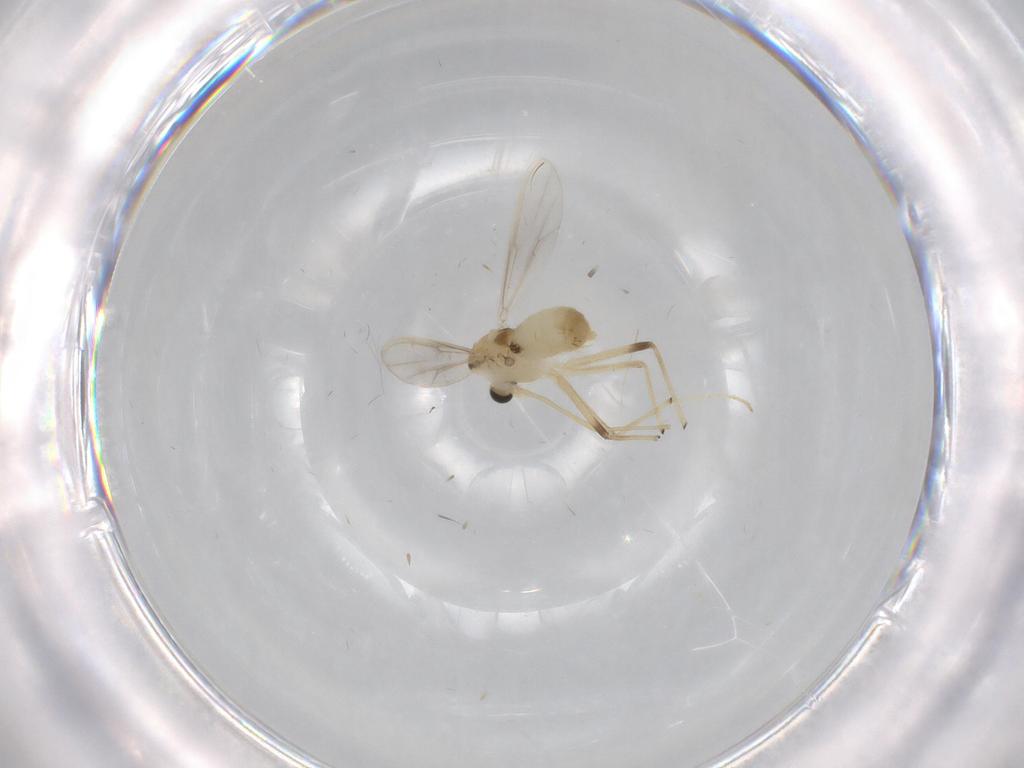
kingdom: Animalia
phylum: Arthropoda
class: Insecta
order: Diptera
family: Chironomidae
